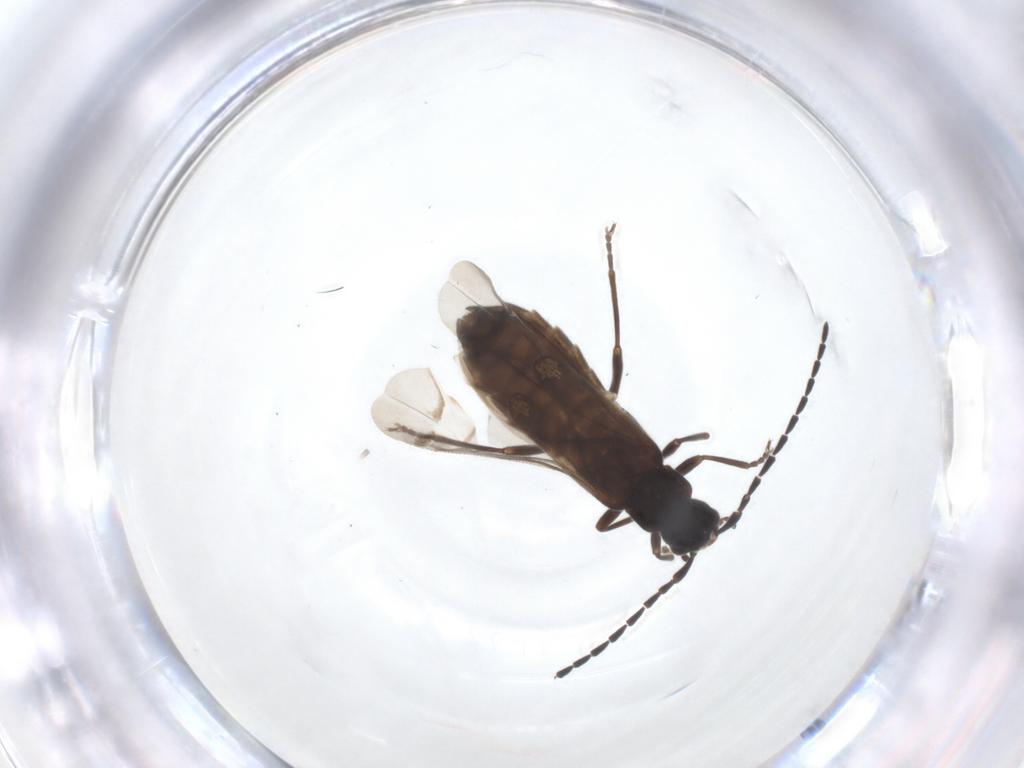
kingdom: Animalia
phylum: Arthropoda
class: Insecta
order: Coleoptera
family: Cantharidae
